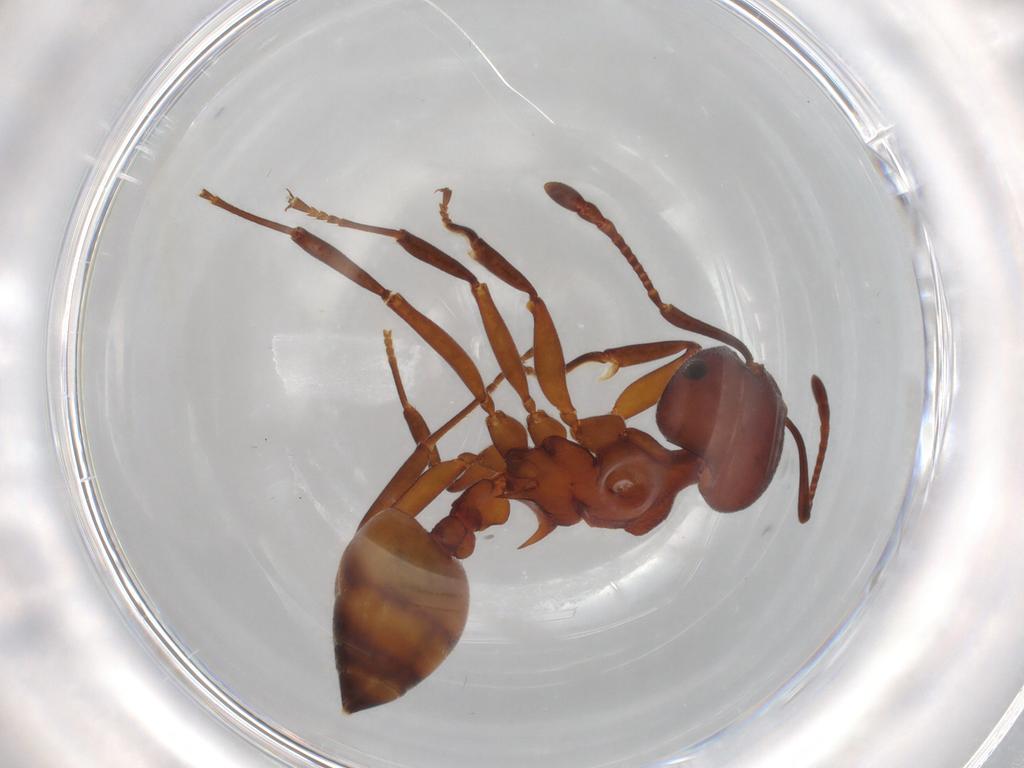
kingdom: Animalia
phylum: Arthropoda
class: Insecta
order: Hymenoptera
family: Formicidae
